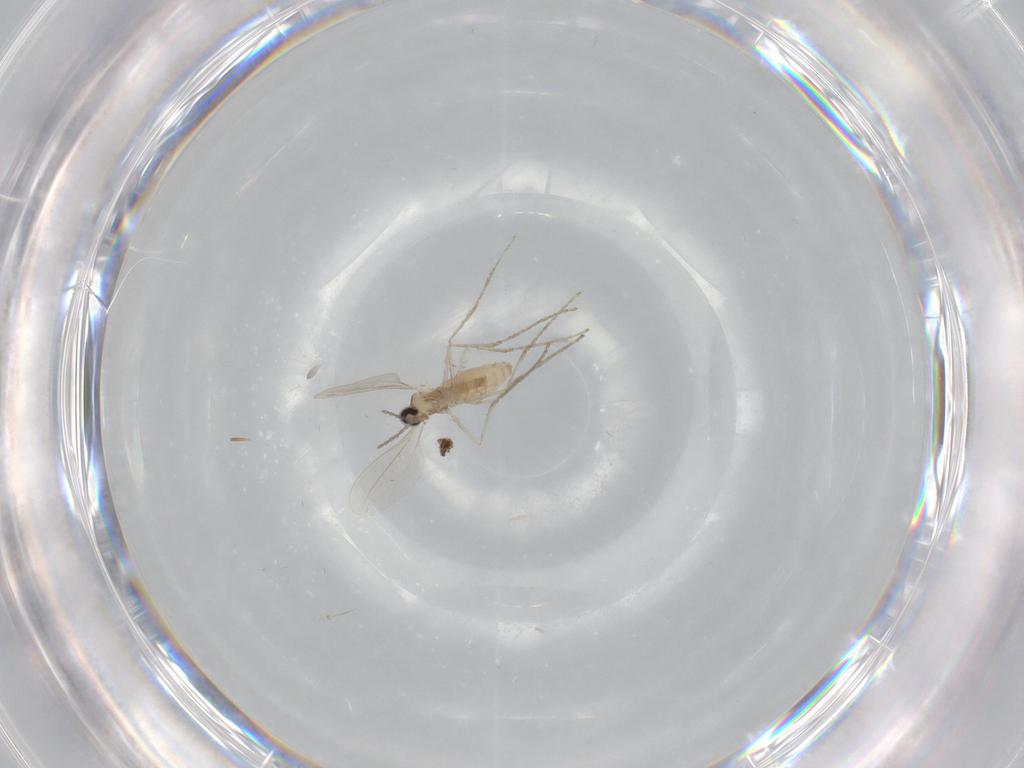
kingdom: Animalia
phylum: Arthropoda
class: Insecta
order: Diptera
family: Cecidomyiidae
